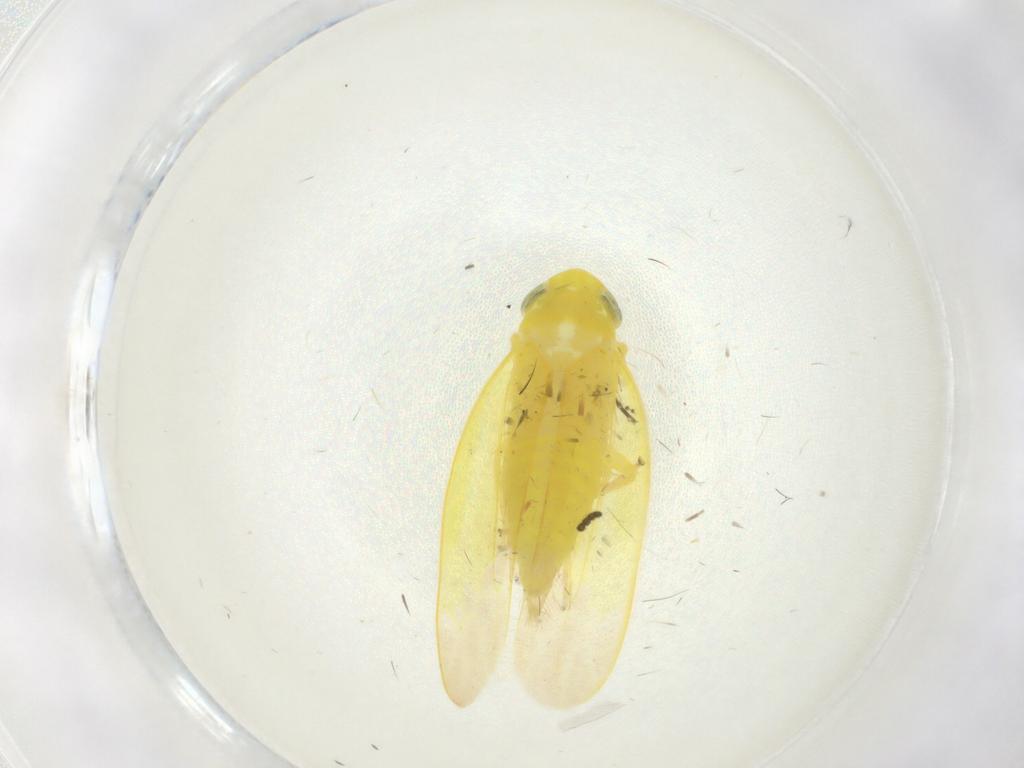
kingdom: Animalia
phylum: Arthropoda
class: Insecta
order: Hemiptera
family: Cicadellidae
